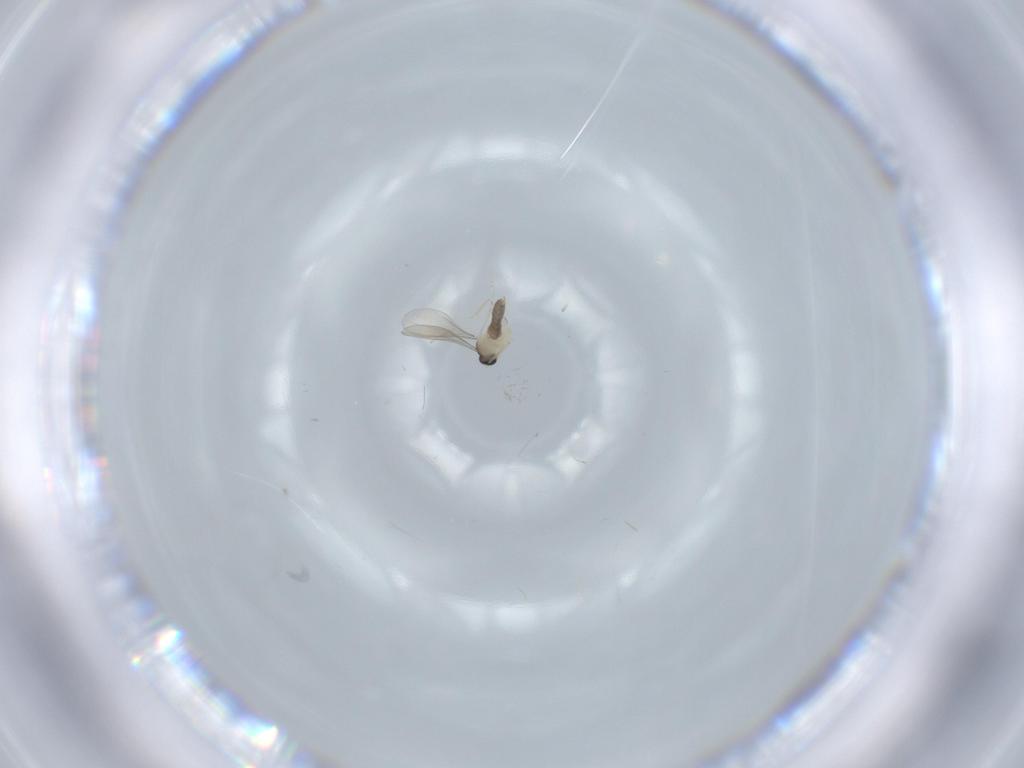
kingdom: Animalia
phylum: Arthropoda
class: Insecta
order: Diptera
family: Cecidomyiidae
